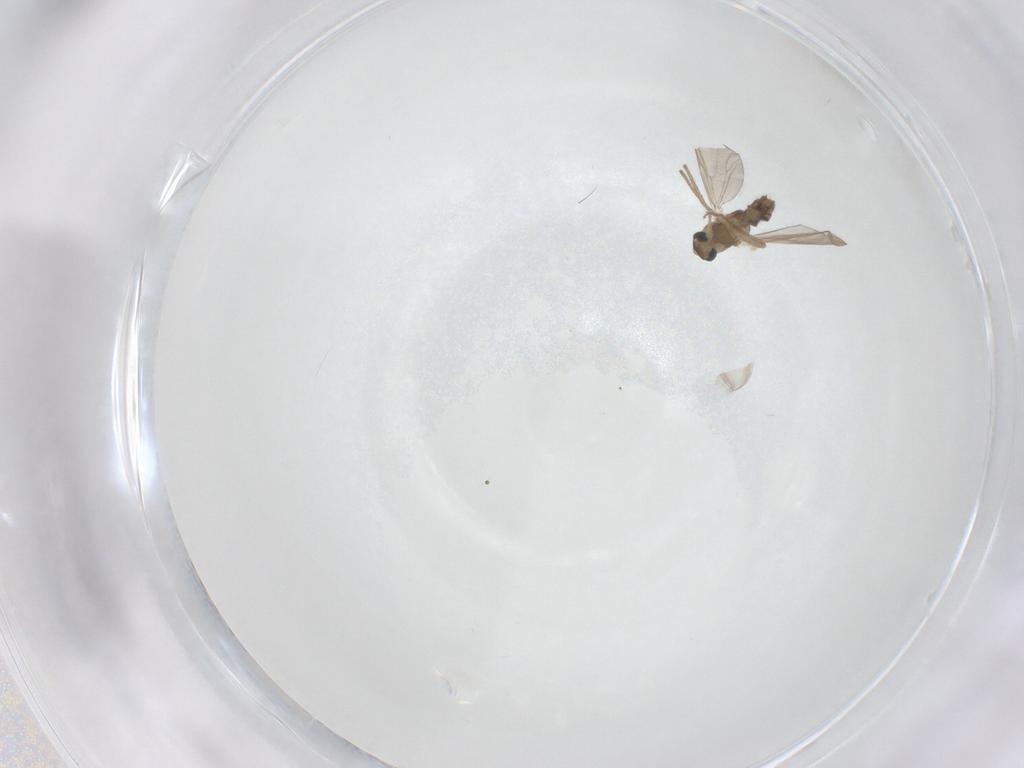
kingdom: Animalia
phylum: Arthropoda
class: Insecta
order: Diptera
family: Chironomidae
